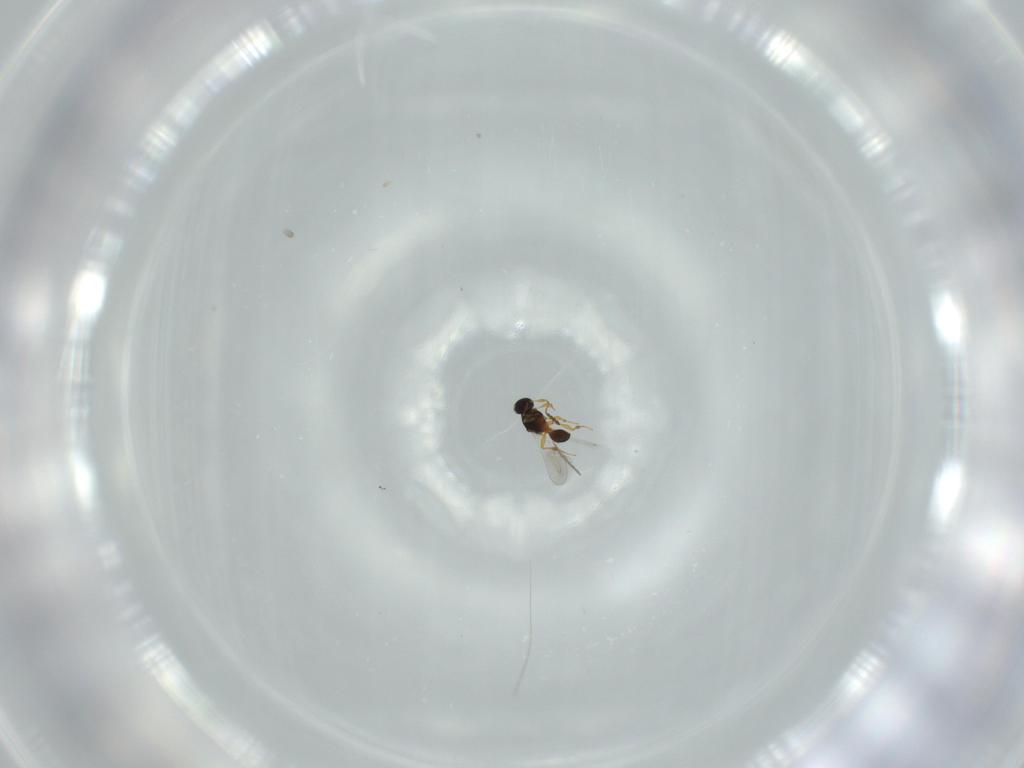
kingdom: Animalia
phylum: Arthropoda
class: Insecta
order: Hymenoptera
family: Platygastridae
